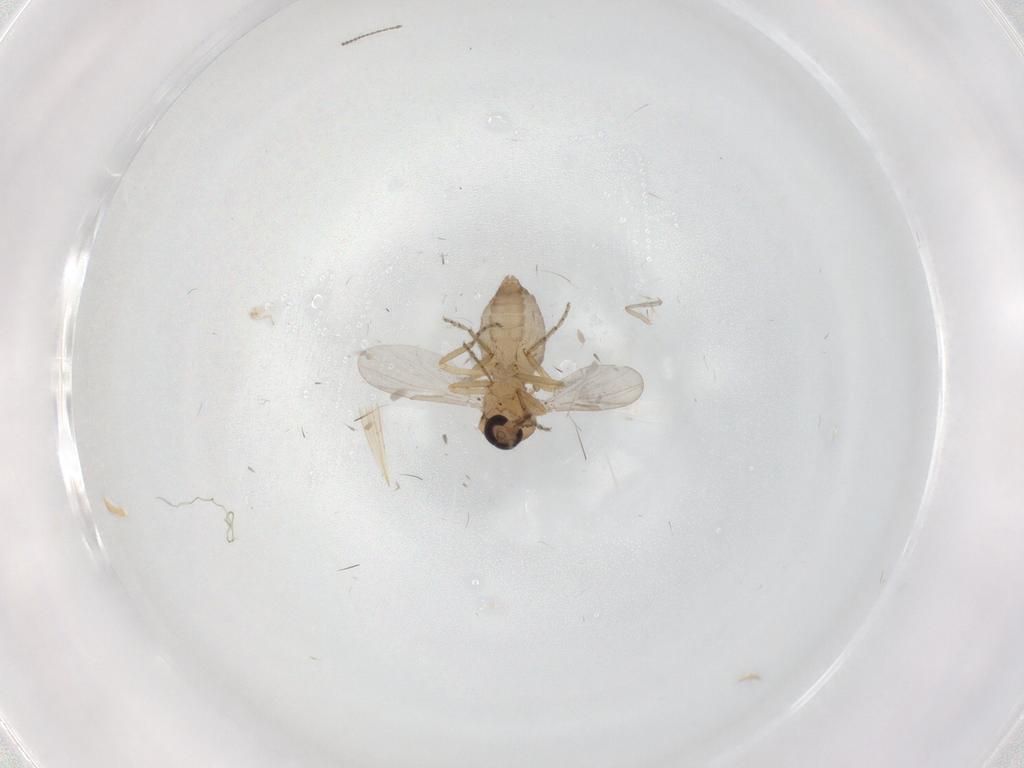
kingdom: Animalia
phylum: Arthropoda
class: Insecta
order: Diptera
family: Ceratopogonidae
